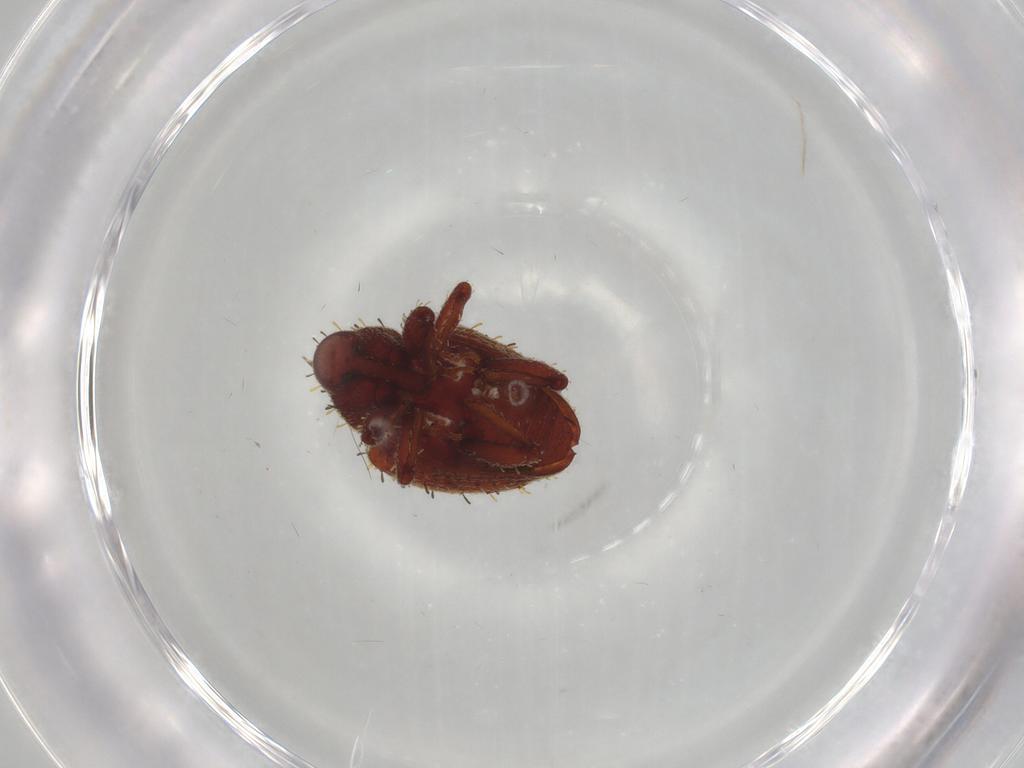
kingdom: Animalia
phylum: Arthropoda
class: Insecta
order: Coleoptera
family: Curculionidae
